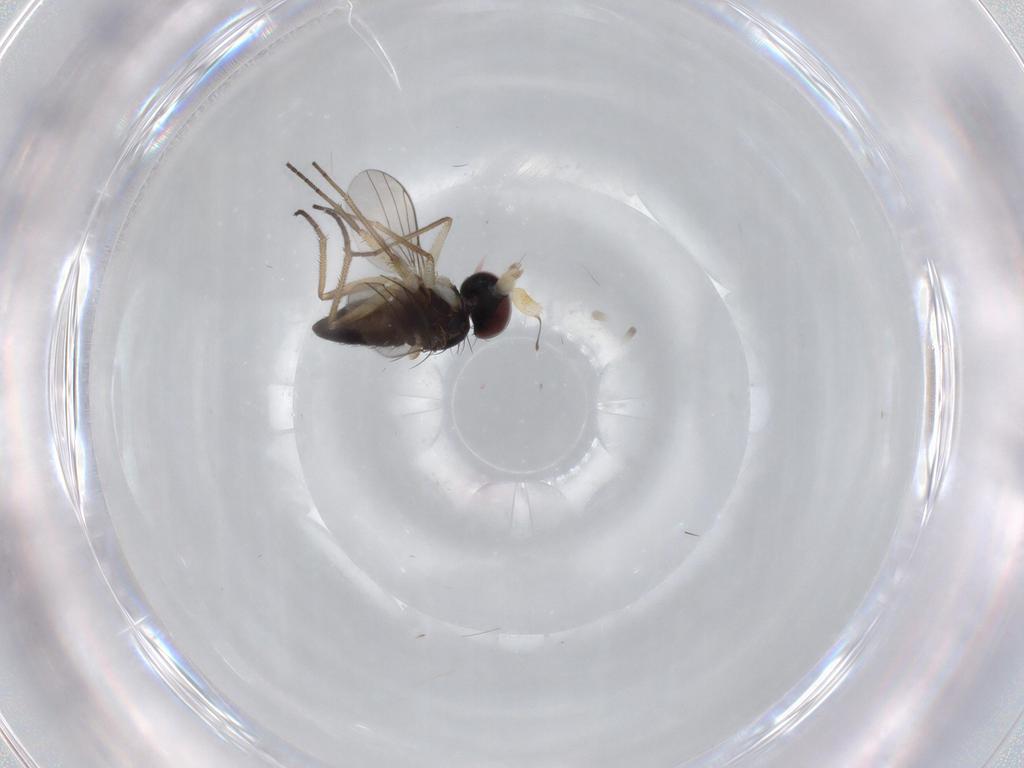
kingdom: Animalia
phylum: Arthropoda
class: Insecta
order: Diptera
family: Dolichopodidae
